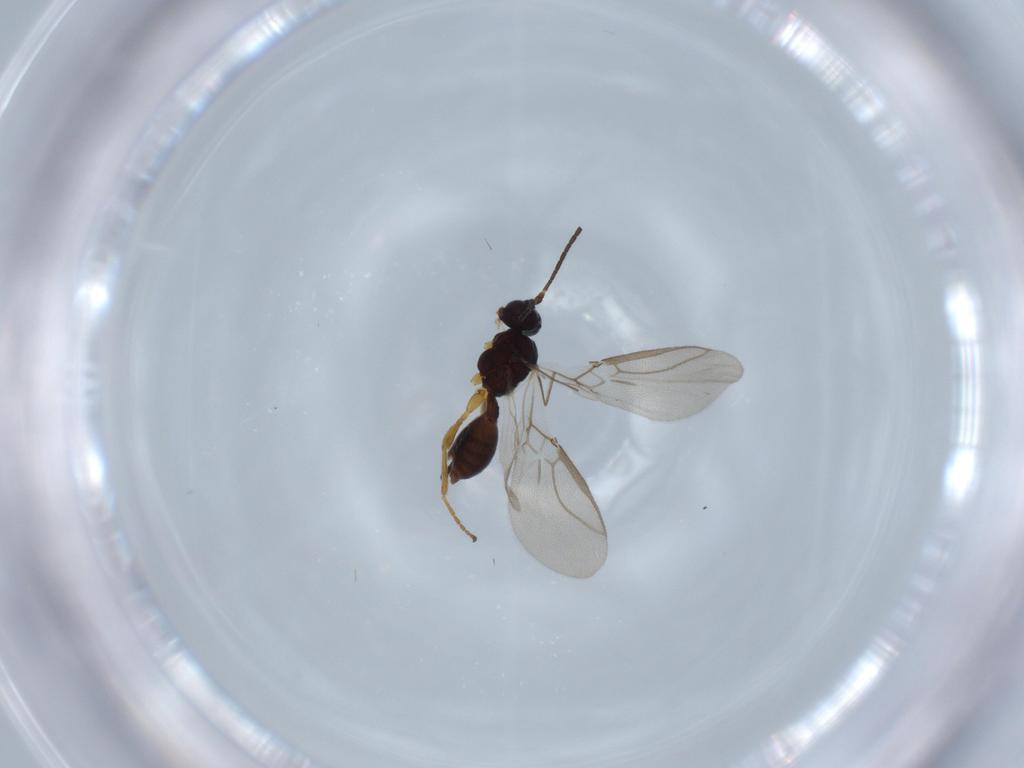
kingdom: Animalia
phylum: Arthropoda
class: Insecta
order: Hymenoptera
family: Braconidae
